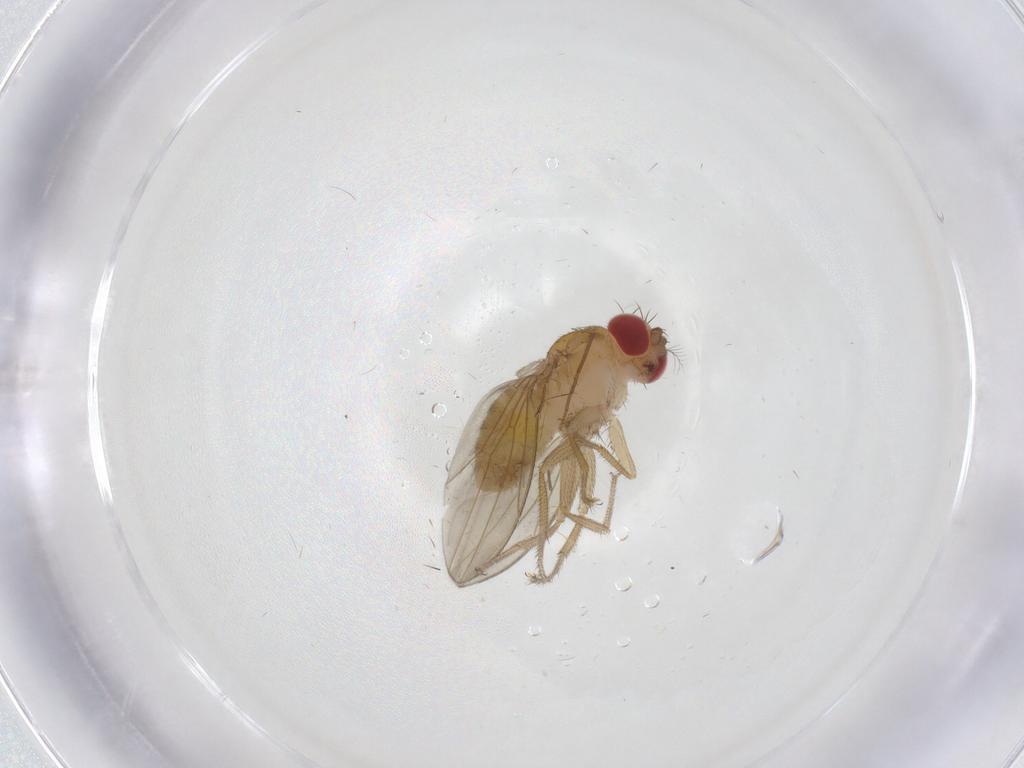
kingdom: Animalia
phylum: Arthropoda
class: Insecta
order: Diptera
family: Drosophilidae
